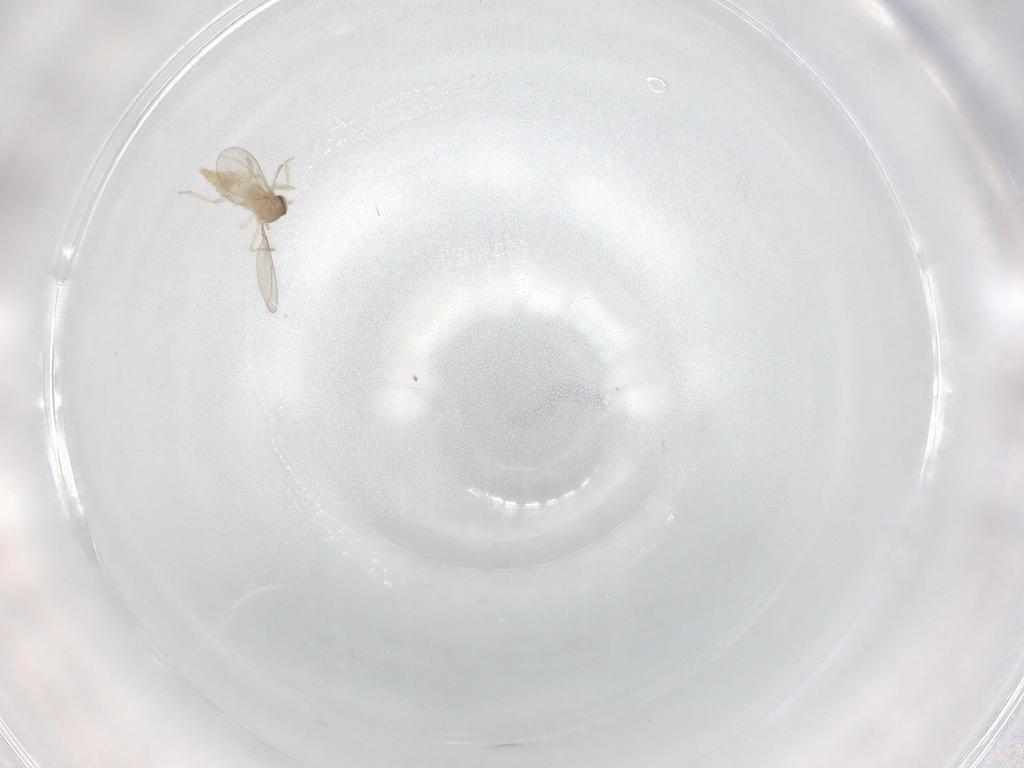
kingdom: Animalia
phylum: Arthropoda
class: Insecta
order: Diptera
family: Cecidomyiidae
